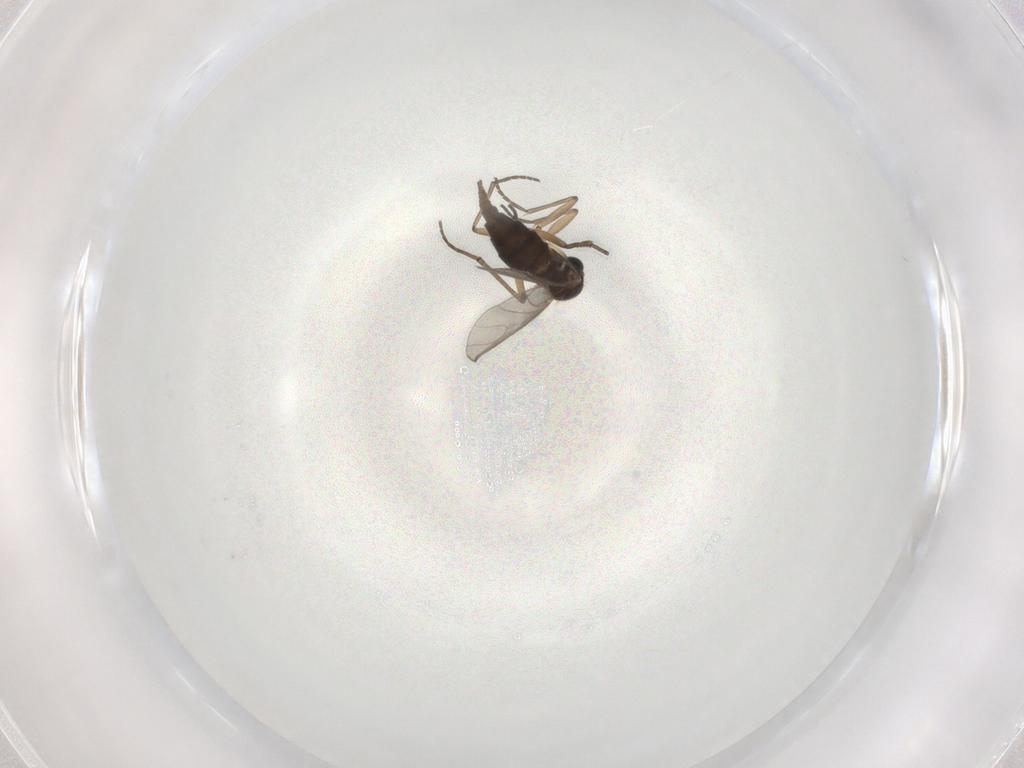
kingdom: Animalia
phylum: Arthropoda
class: Insecta
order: Diptera
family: Sciaridae
